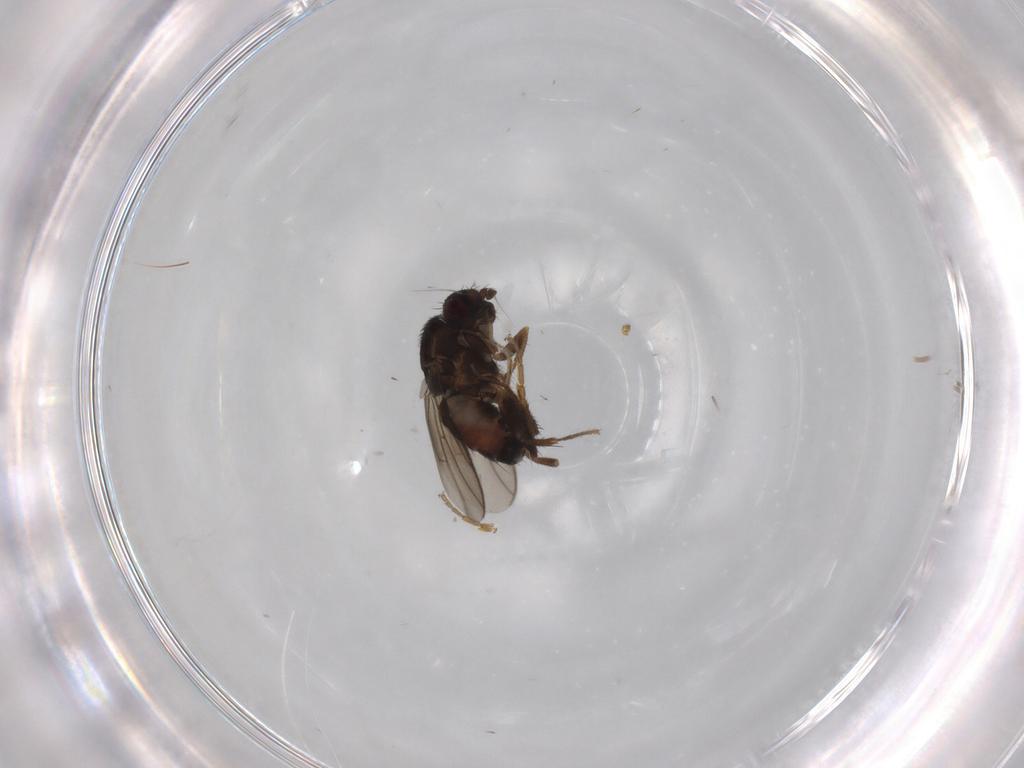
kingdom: Animalia
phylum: Arthropoda
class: Insecta
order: Diptera
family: Sphaeroceridae
